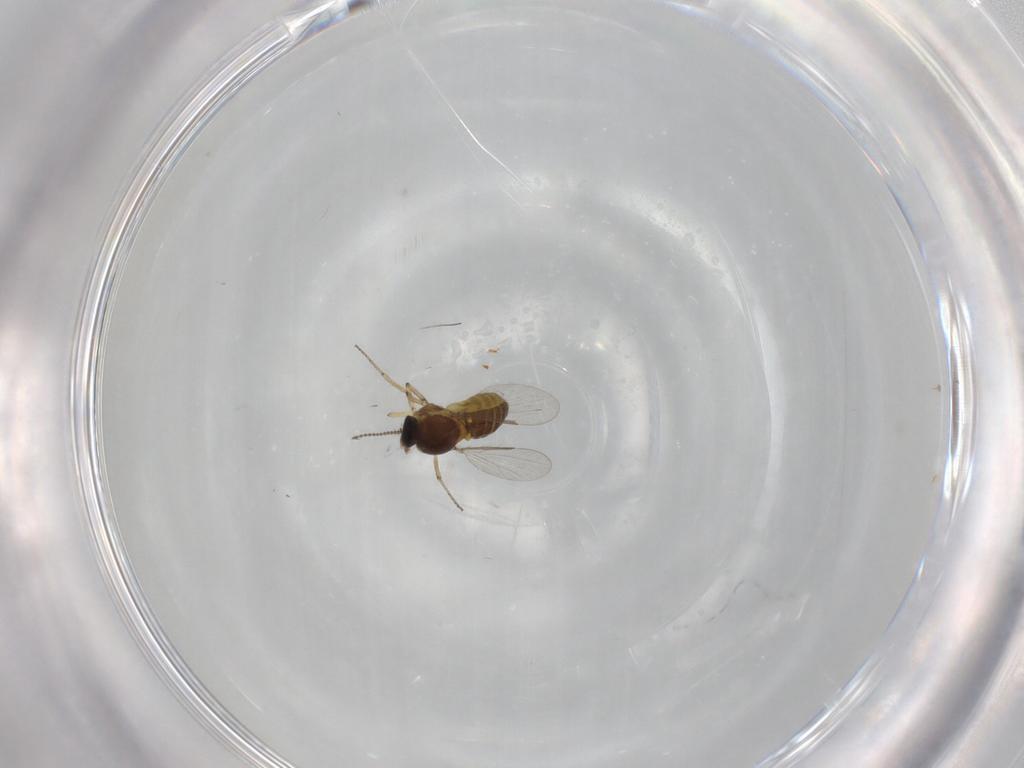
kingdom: Animalia
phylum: Arthropoda
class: Insecta
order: Diptera
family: Ceratopogonidae
